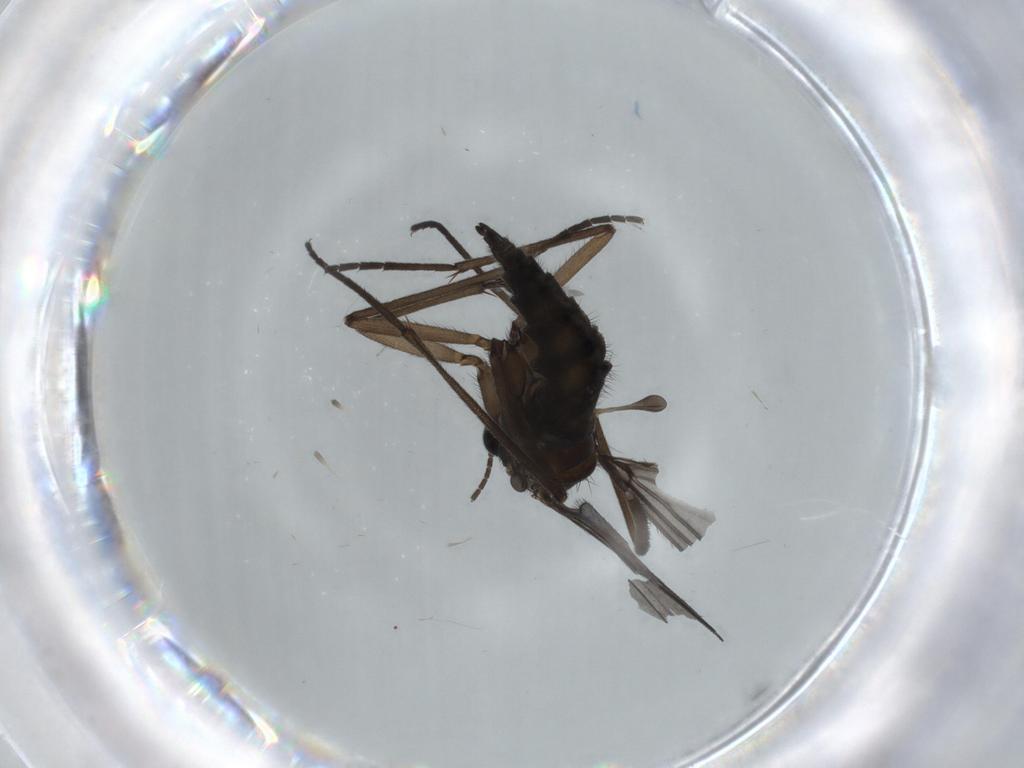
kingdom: Animalia
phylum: Arthropoda
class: Insecta
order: Diptera
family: Sciaridae
